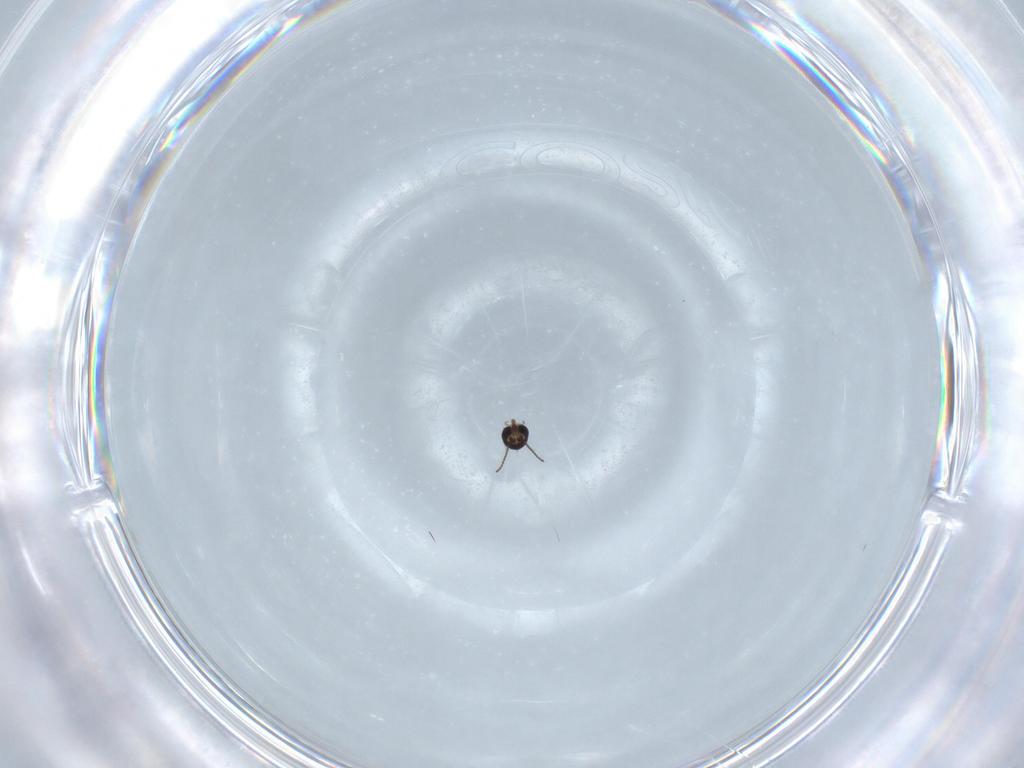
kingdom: Animalia
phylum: Arthropoda
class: Insecta
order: Diptera
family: Ceratopogonidae
